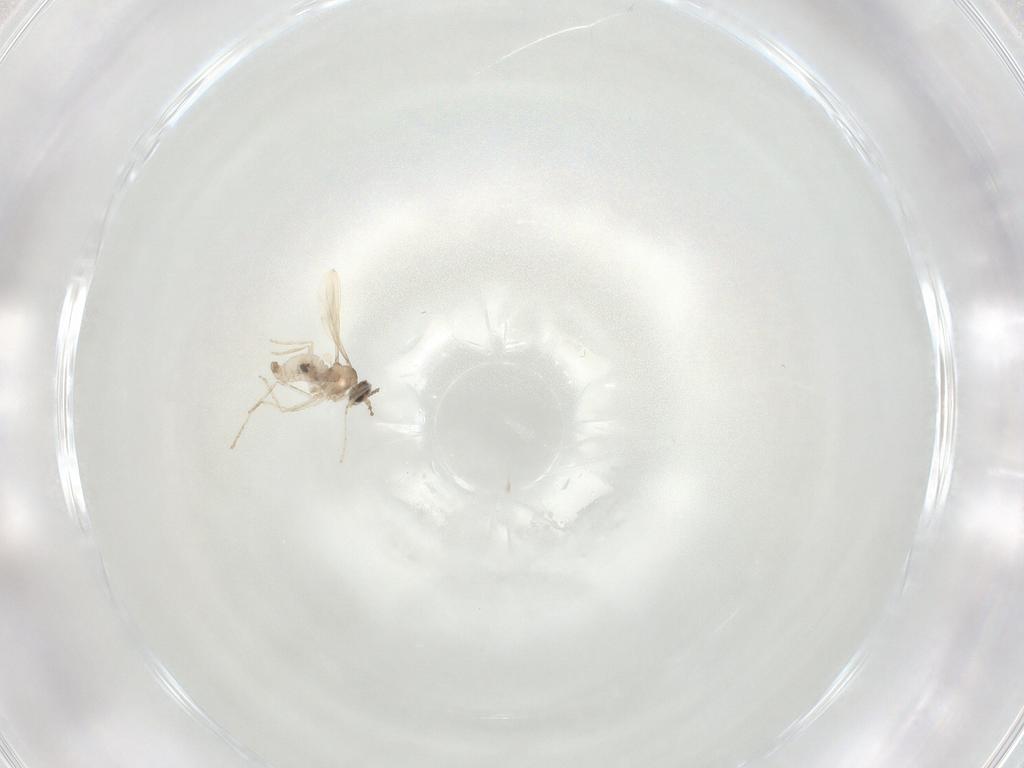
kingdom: Animalia
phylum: Arthropoda
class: Insecta
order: Diptera
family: Cecidomyiidae
